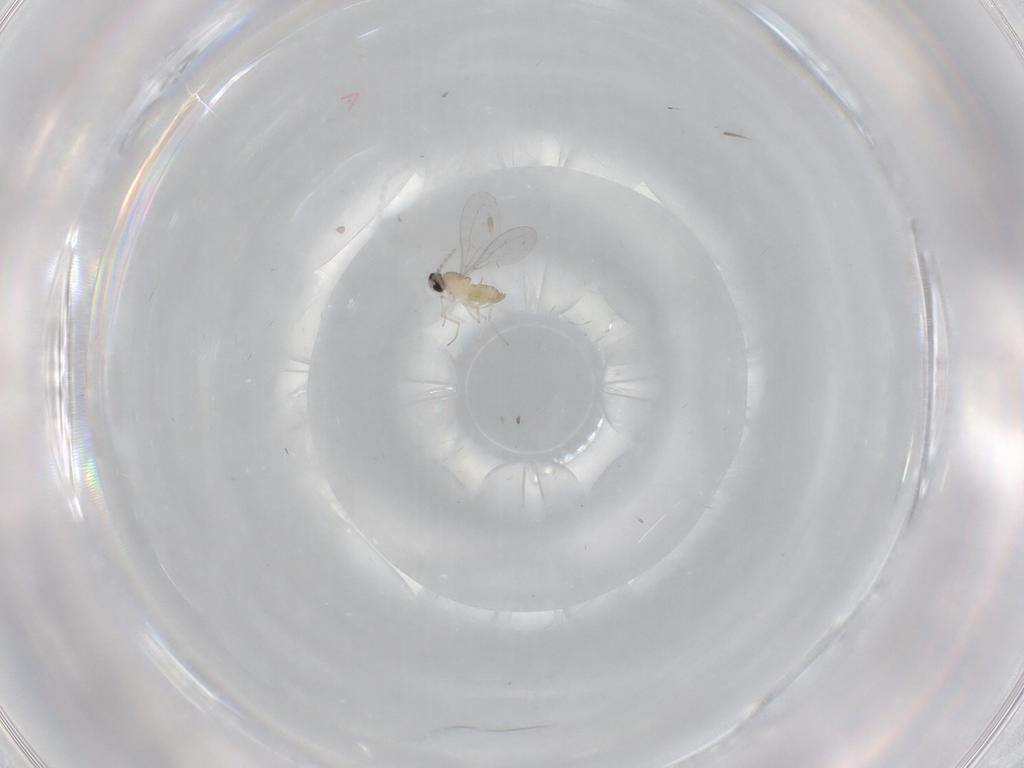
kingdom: Animalia
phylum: Arthropoda
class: Insecta
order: Diptera
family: Cecidomyiidae
